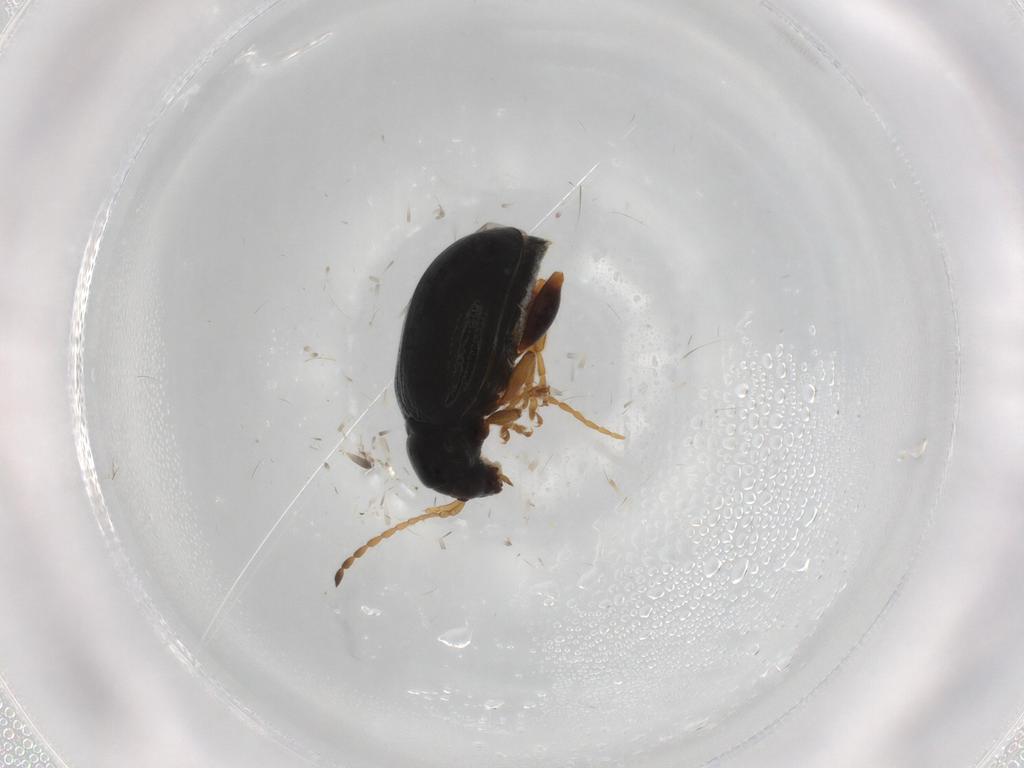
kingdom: Animalia
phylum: Arthropoda
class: Insecta
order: Coleoptera
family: Chrysomelidae
